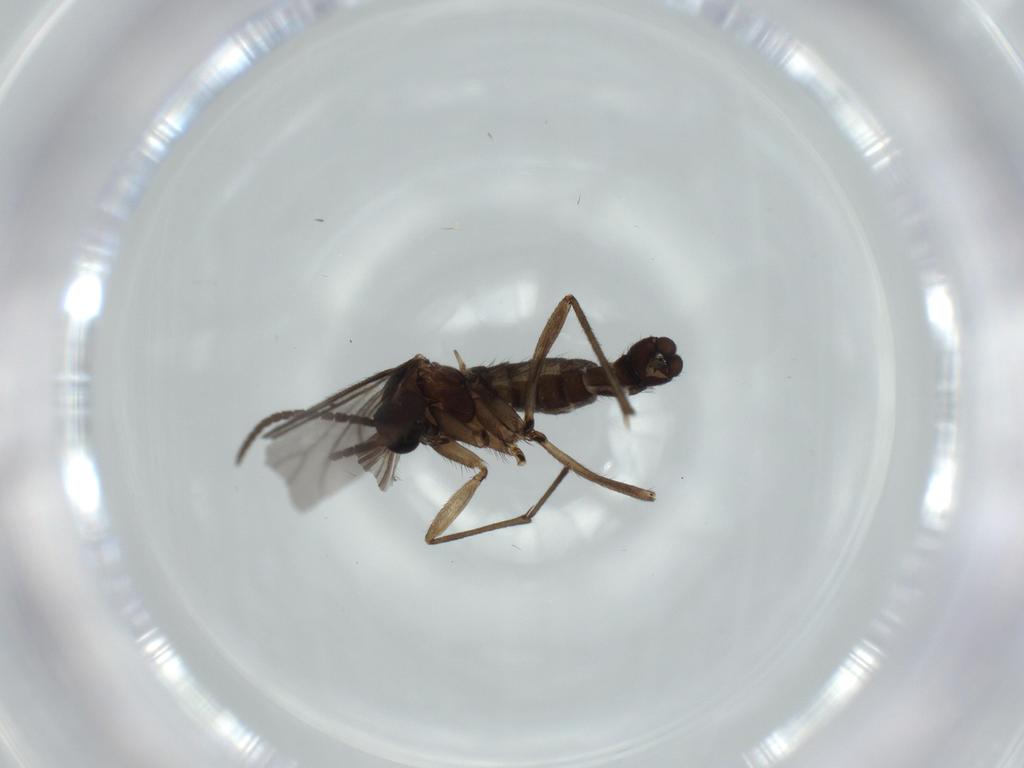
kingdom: Animalia
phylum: Arthropoda
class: Insecta
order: Diptera
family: Sciaridae
